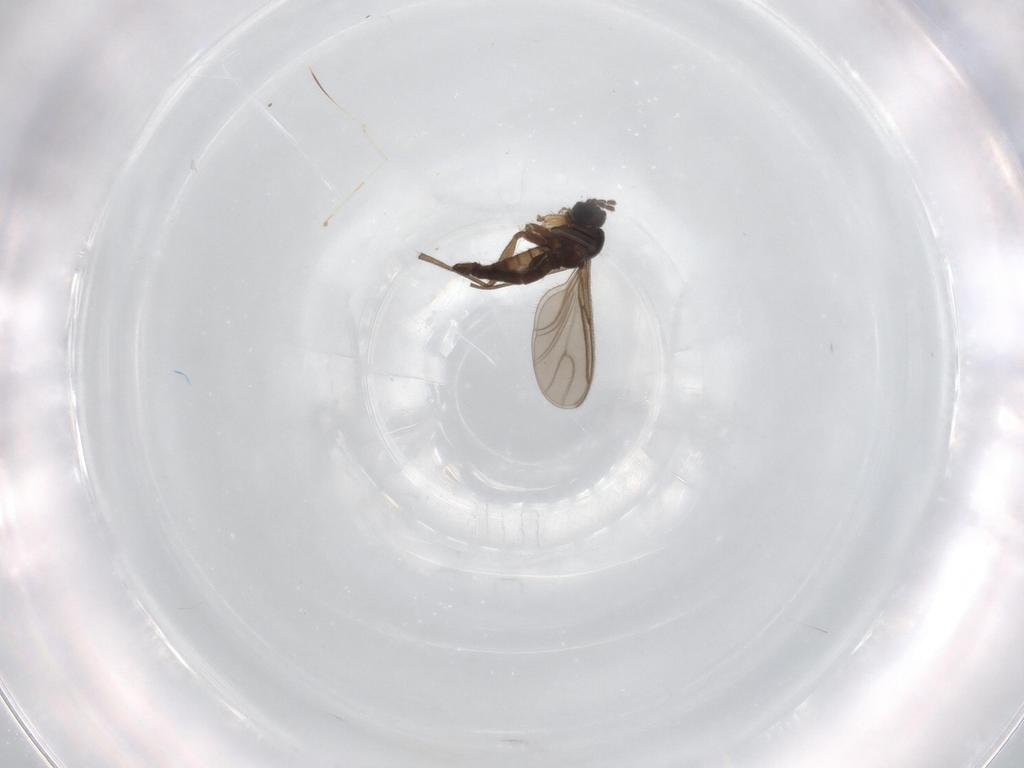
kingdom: Animalia
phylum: Arthropoda
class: Insecta
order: Diptera
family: Sciaridae
